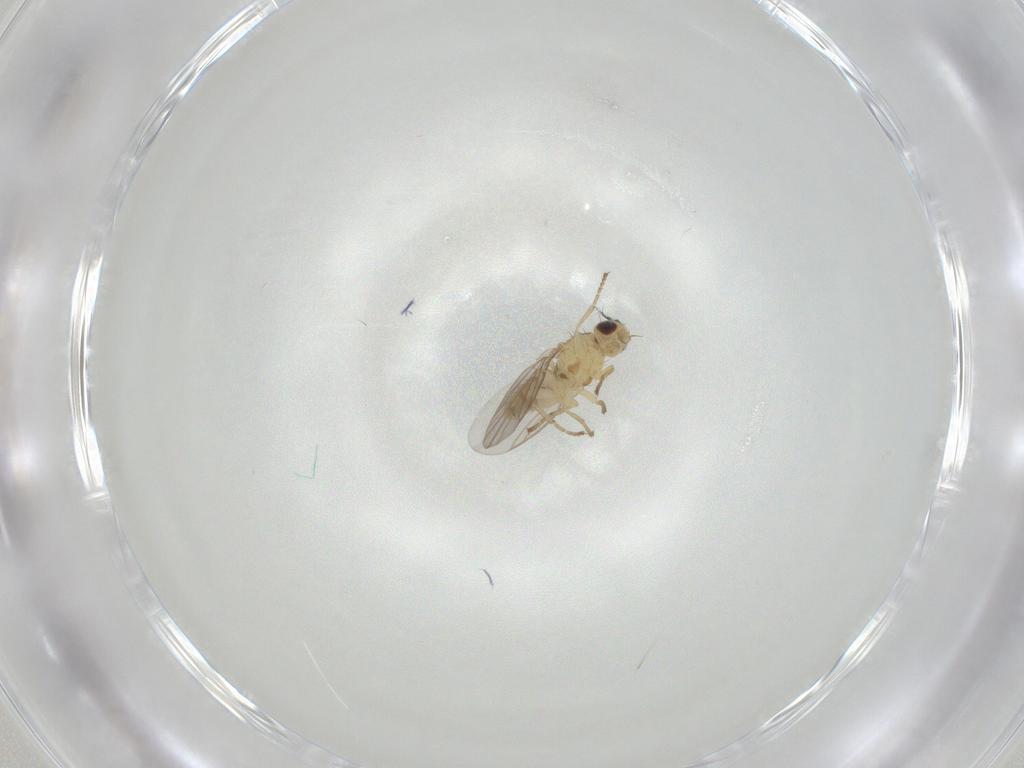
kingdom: Animalia
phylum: Arthropoda
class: Insecta
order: Diptera
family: Agromyzidae
